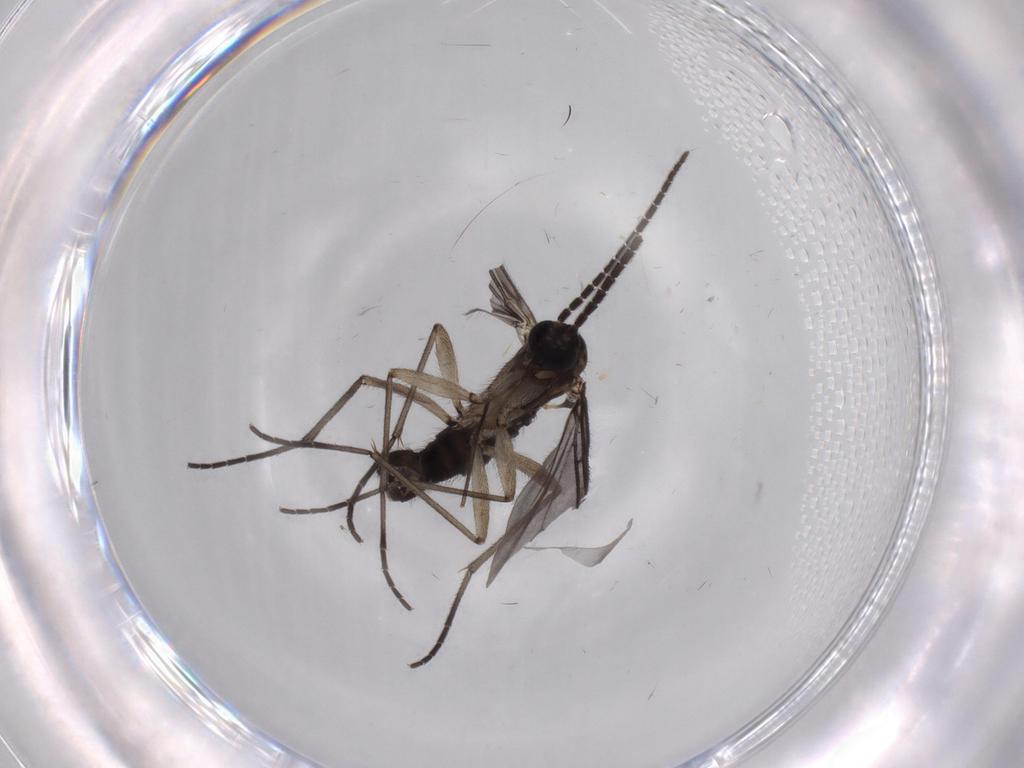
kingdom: Animalia
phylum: Arthropoda
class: Insecta
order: Diptera
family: Sciaridae
